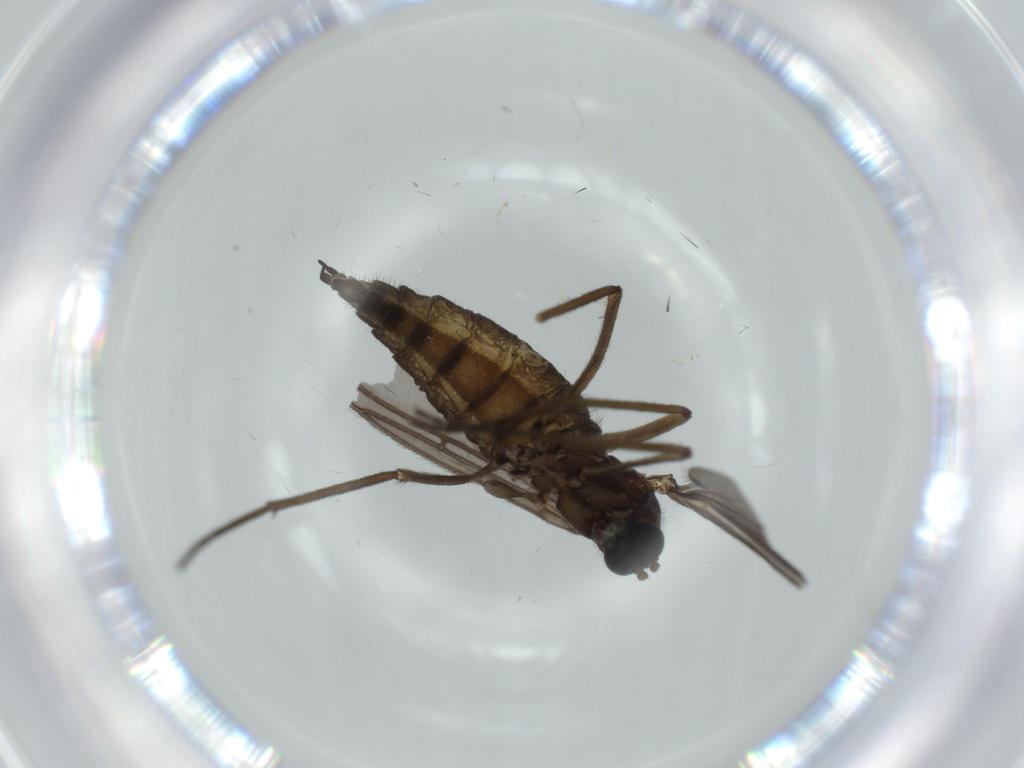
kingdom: Animalia
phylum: Arthropoda
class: Insecta
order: Diptera
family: Sciaridae
